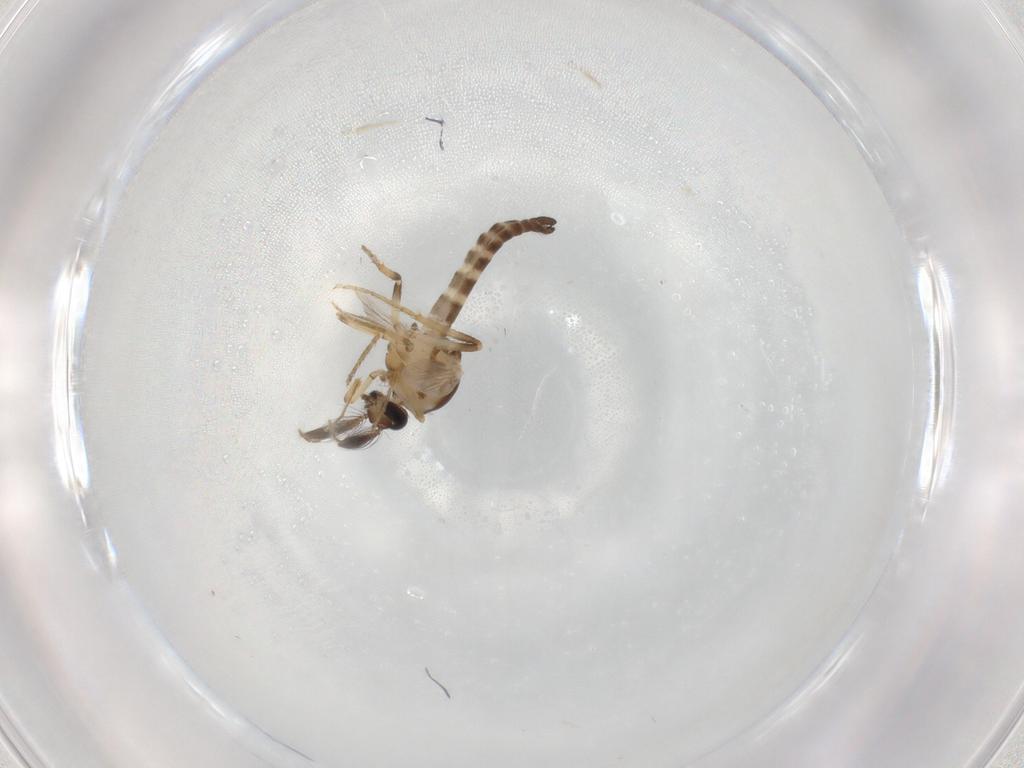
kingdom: Animalia
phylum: Arthropoda
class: Insecta
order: Diptera
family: Ceratopogonidae
